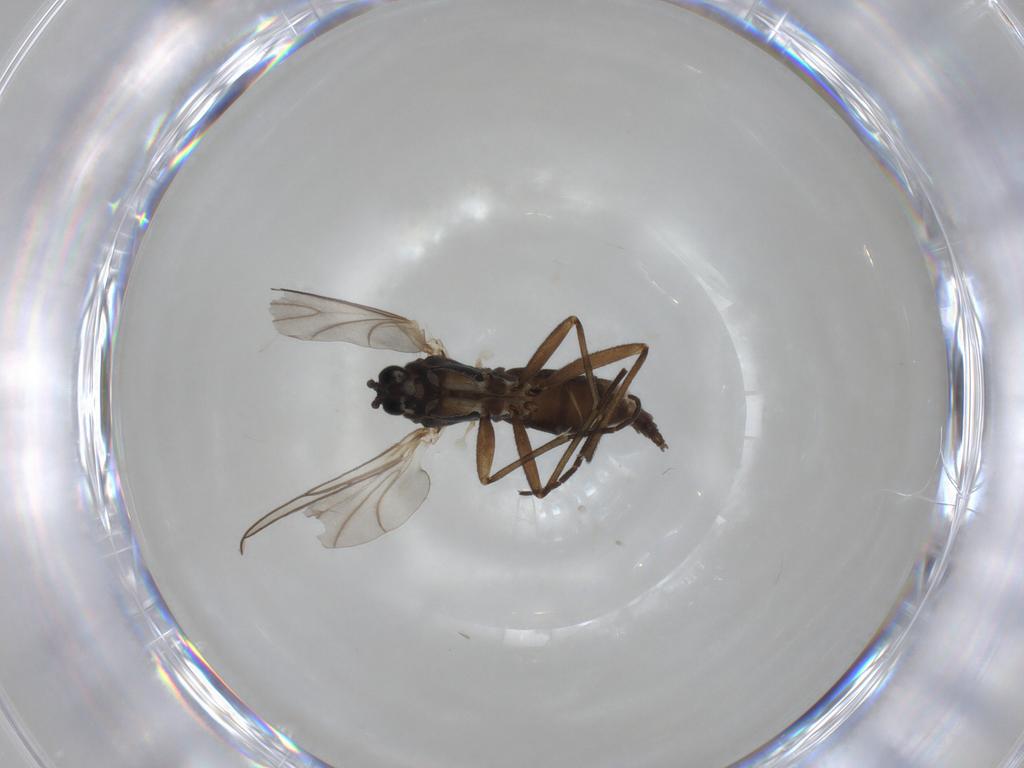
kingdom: Animalia
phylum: Arthropoda
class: Insecta
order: Diptera
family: Sciaridae
